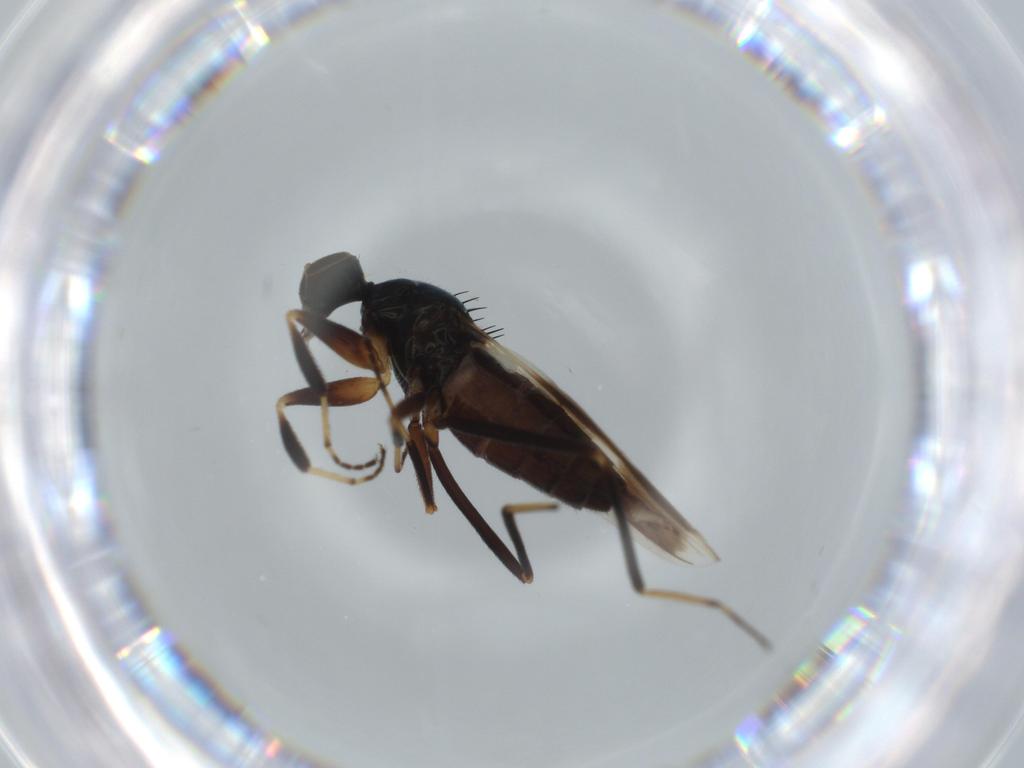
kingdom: Animalia
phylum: Arthropoda
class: Insecta
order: Diptera
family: Hybotidae
